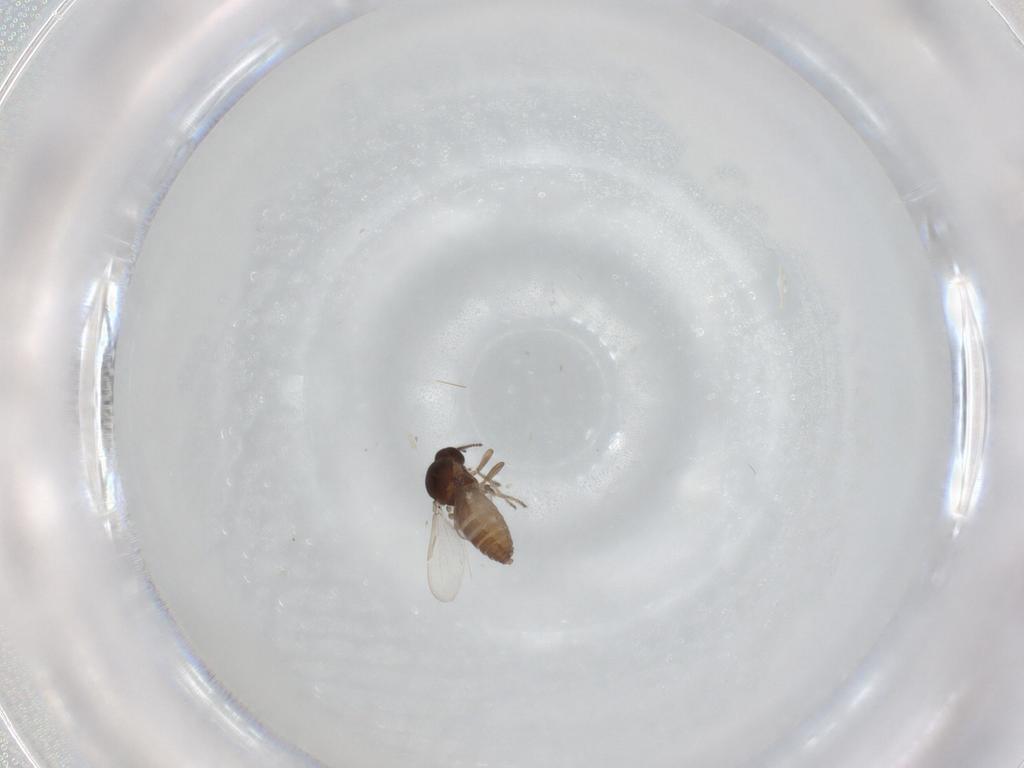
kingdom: Animalia
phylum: Arthropoda
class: Insecta
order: Diptera
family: Ceratopogonidae
